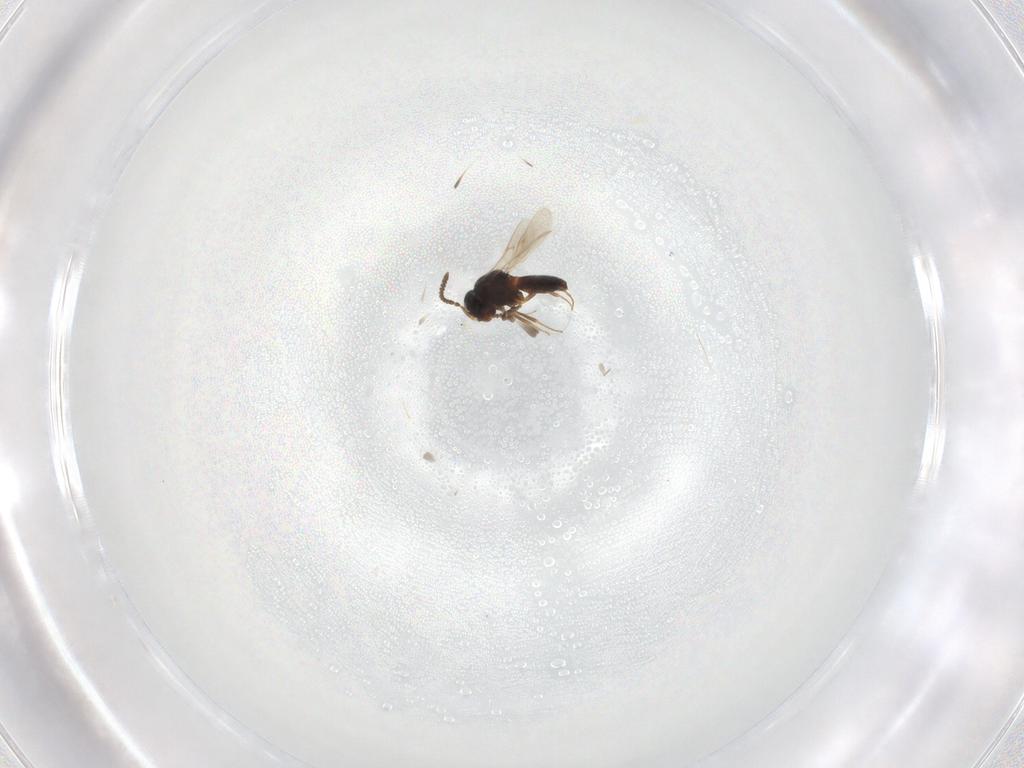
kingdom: Animalia
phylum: Arthropoda
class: Insecta
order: Hymenoptera
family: Scelionidae
